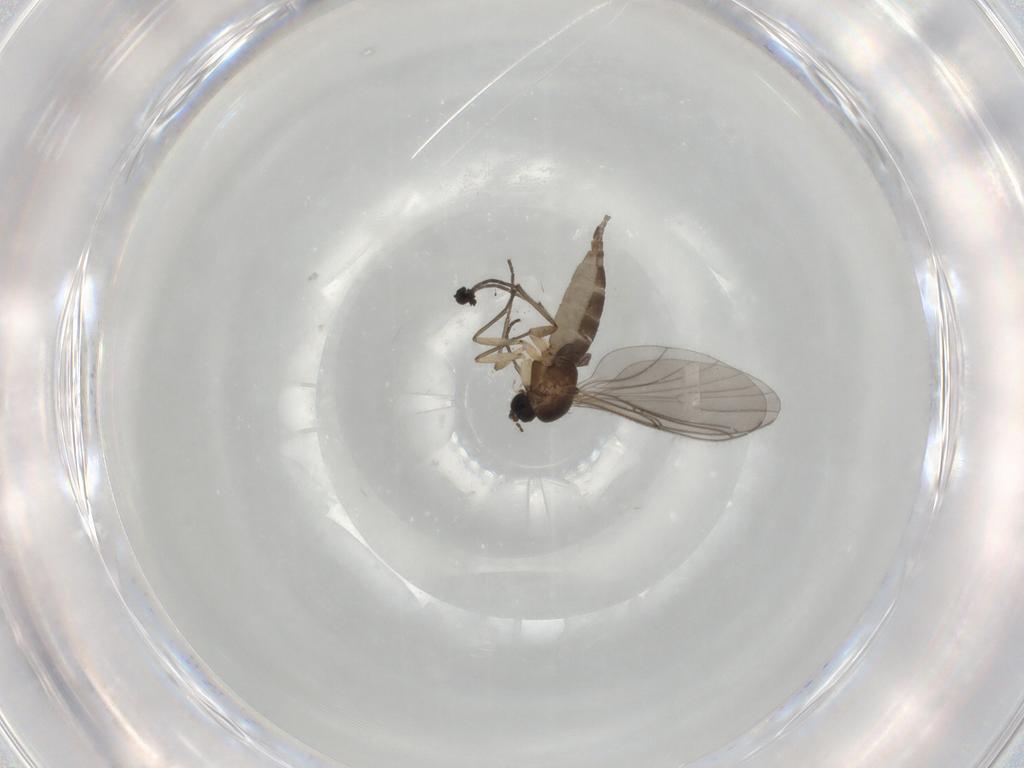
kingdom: Animalia
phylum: Arthropoda
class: Insecta
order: Diptera
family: Sciaridae
